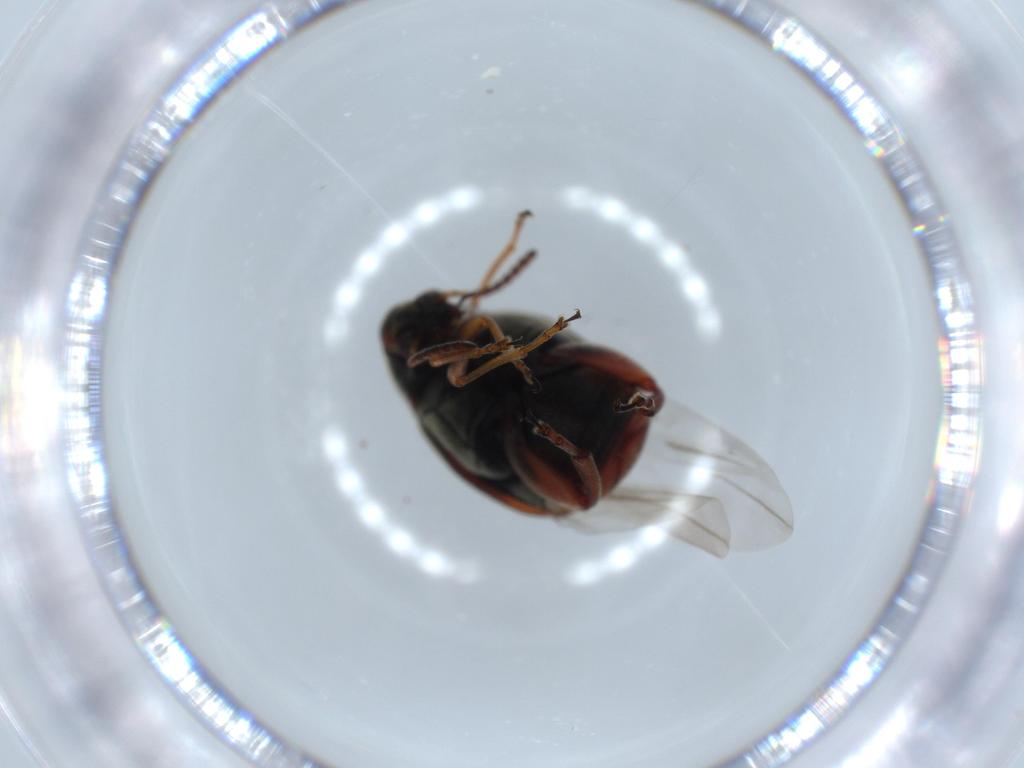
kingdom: Animalia
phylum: Arthropoda
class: Insecta
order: Coleoptera
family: Chrysomelidae
